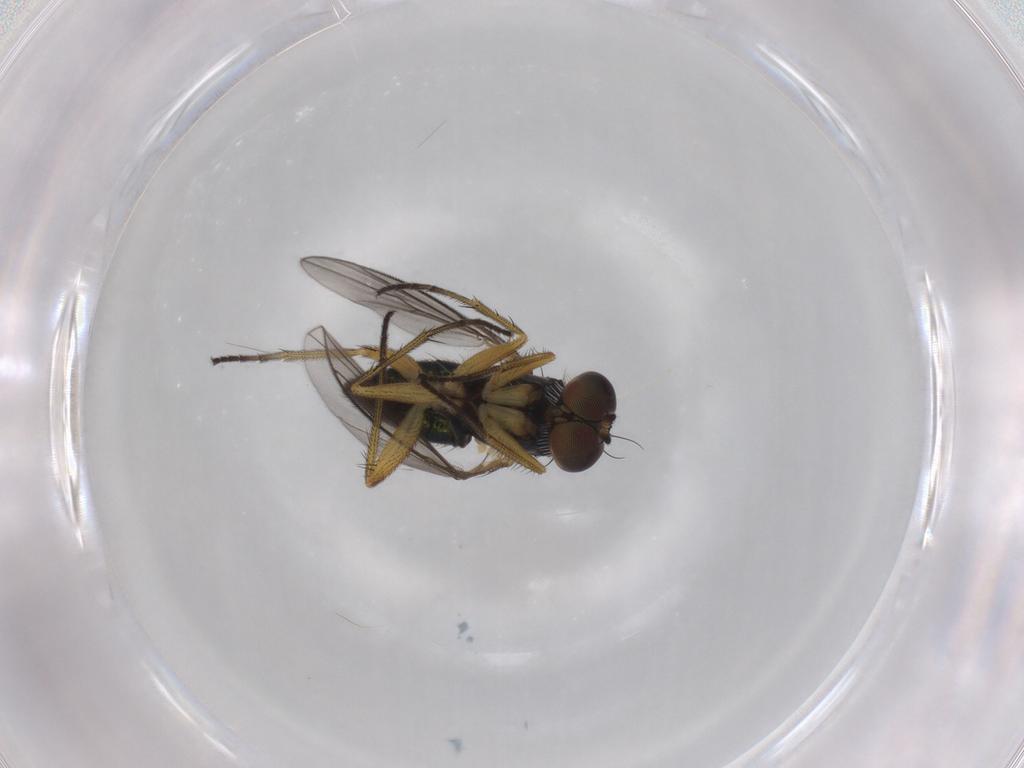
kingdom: Animalia
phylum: Arthropoda
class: Insecta
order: Diptera
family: Dolichopodidae
